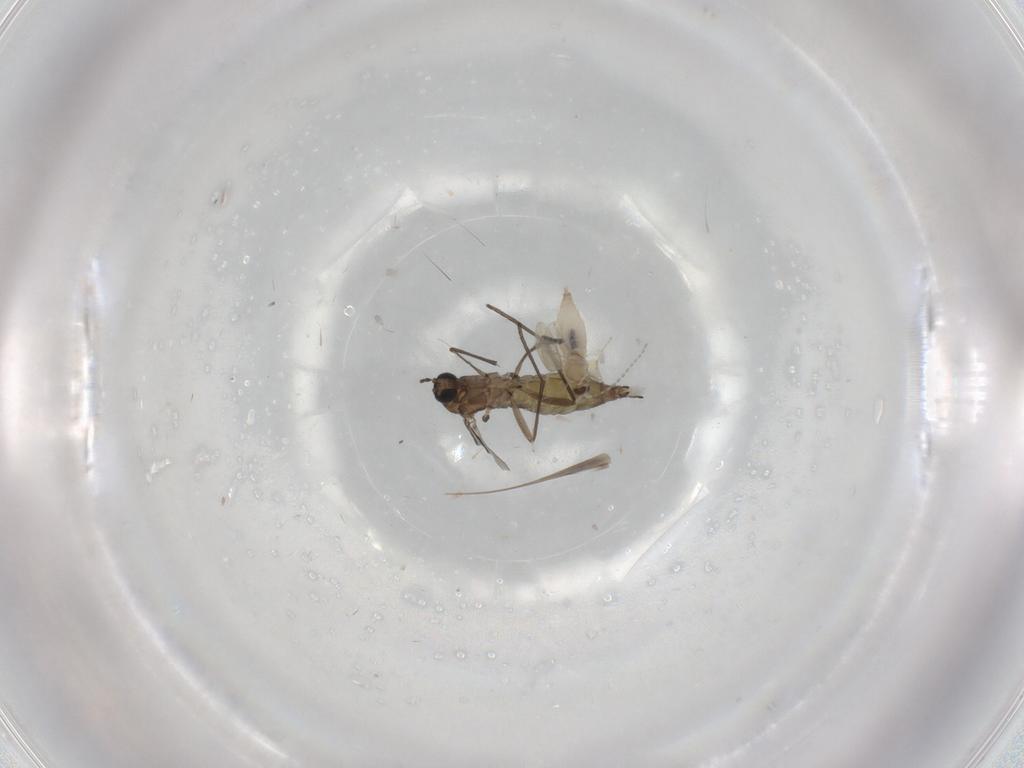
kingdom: Animalia
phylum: Arthropoda
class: Insecta
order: Diptera
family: Sciaridae
